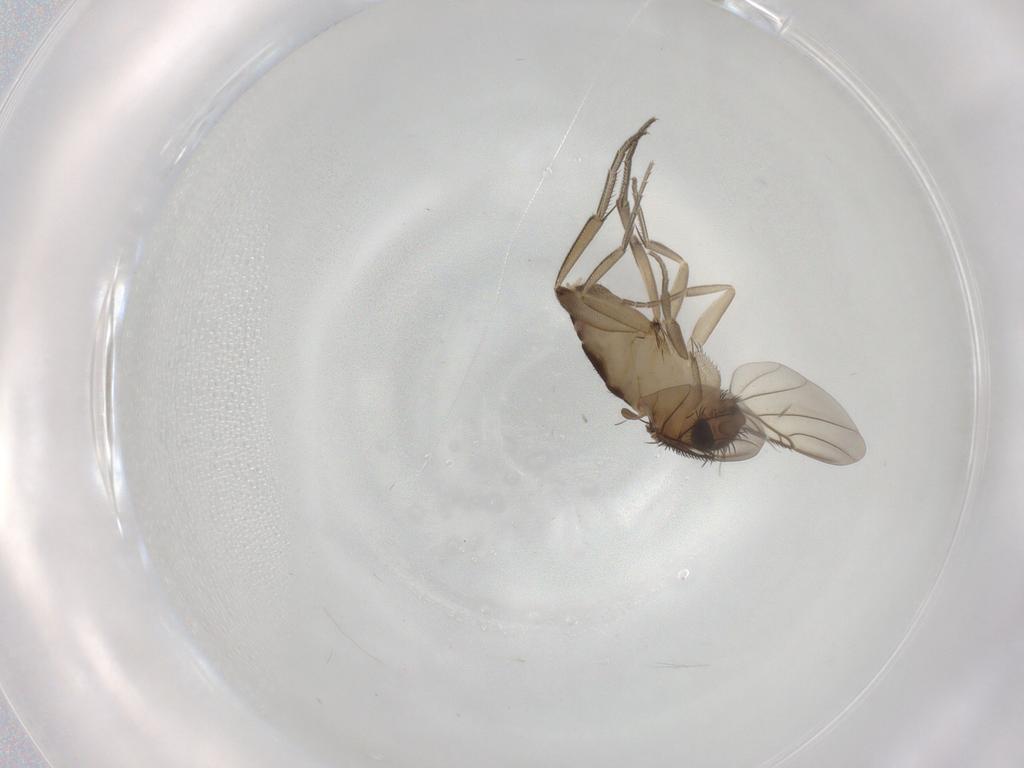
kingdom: Animalia
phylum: Arthropoda
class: Insecta
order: Diptera
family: Phoridae
